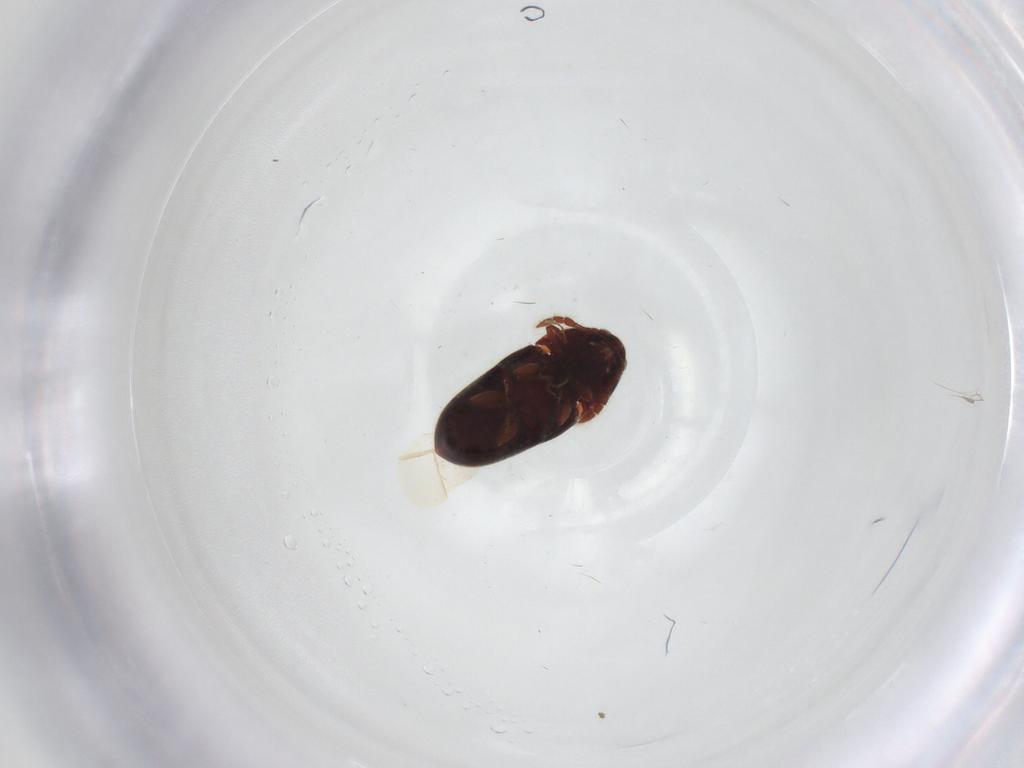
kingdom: Animalia
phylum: Arthropoda
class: Insecta
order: Coleoptera
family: Throscidae
